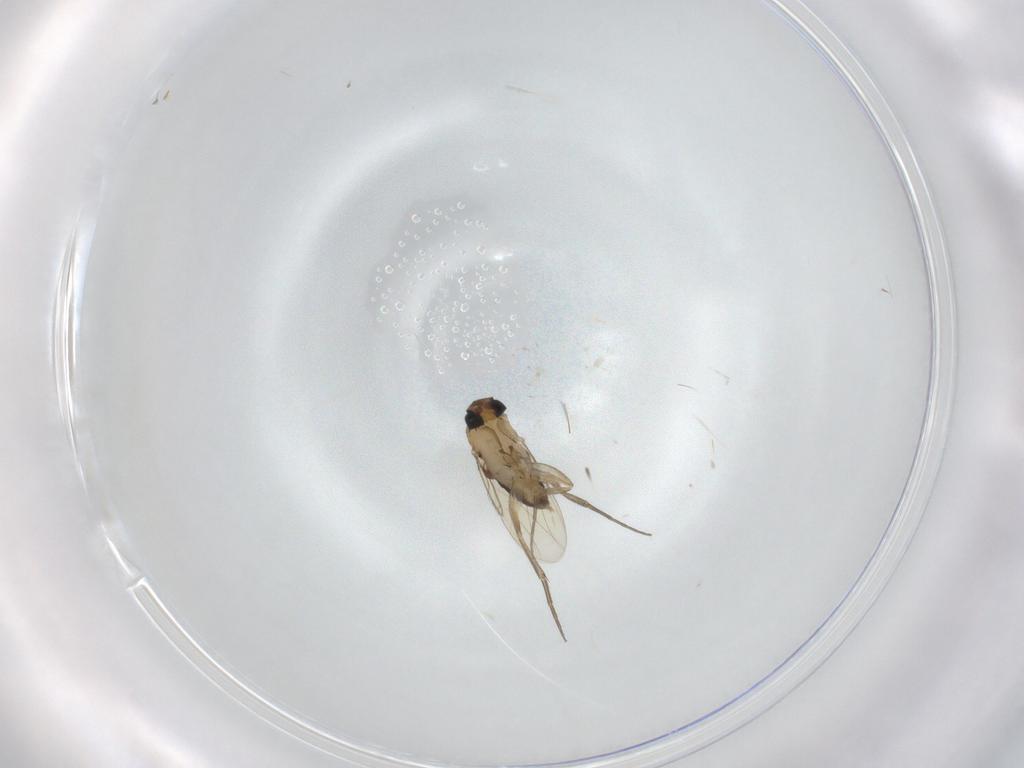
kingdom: Animalia
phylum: Arthropoda
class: Insecta
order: Diptera
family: Phoridae
